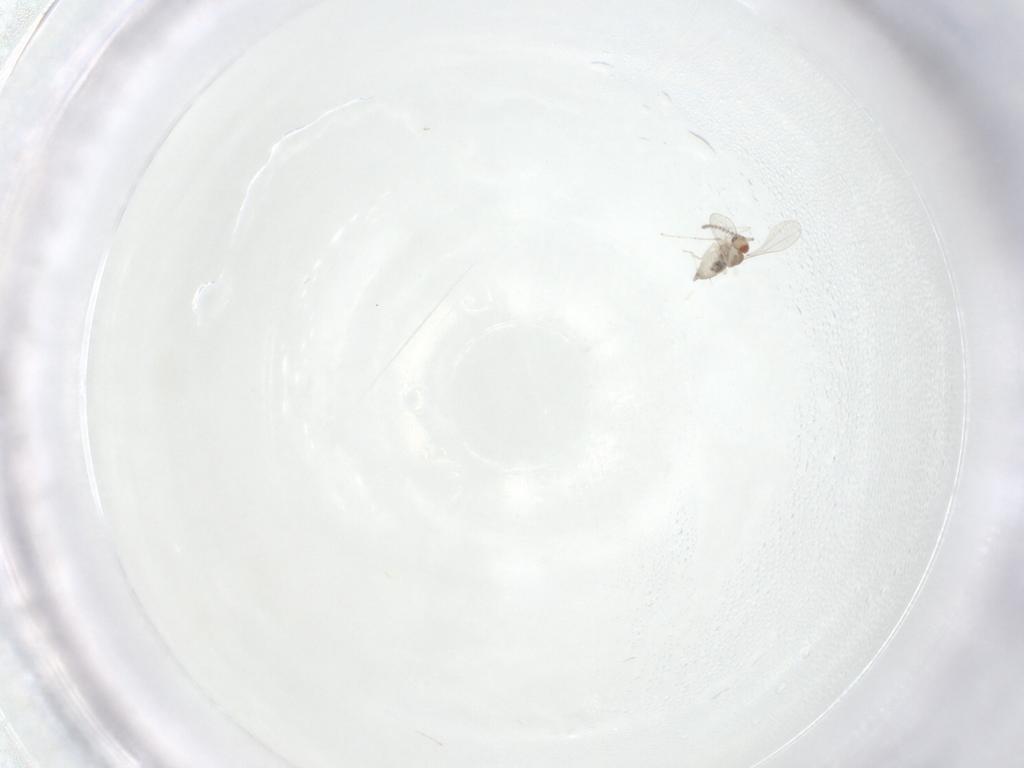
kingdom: Animalia
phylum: Arthropoda
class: Insecta
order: Diptera
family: Cecidomyiidae
